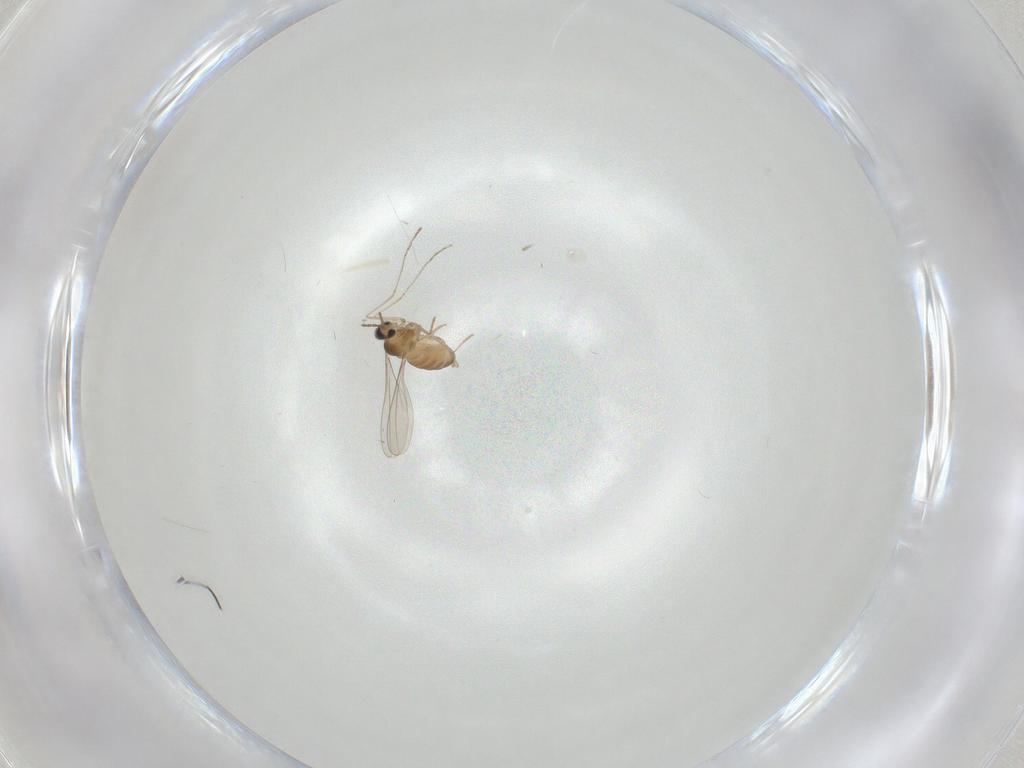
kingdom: Animalia
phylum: Arthropoda
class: Insecta
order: Diptera
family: Cecidomyiidae
